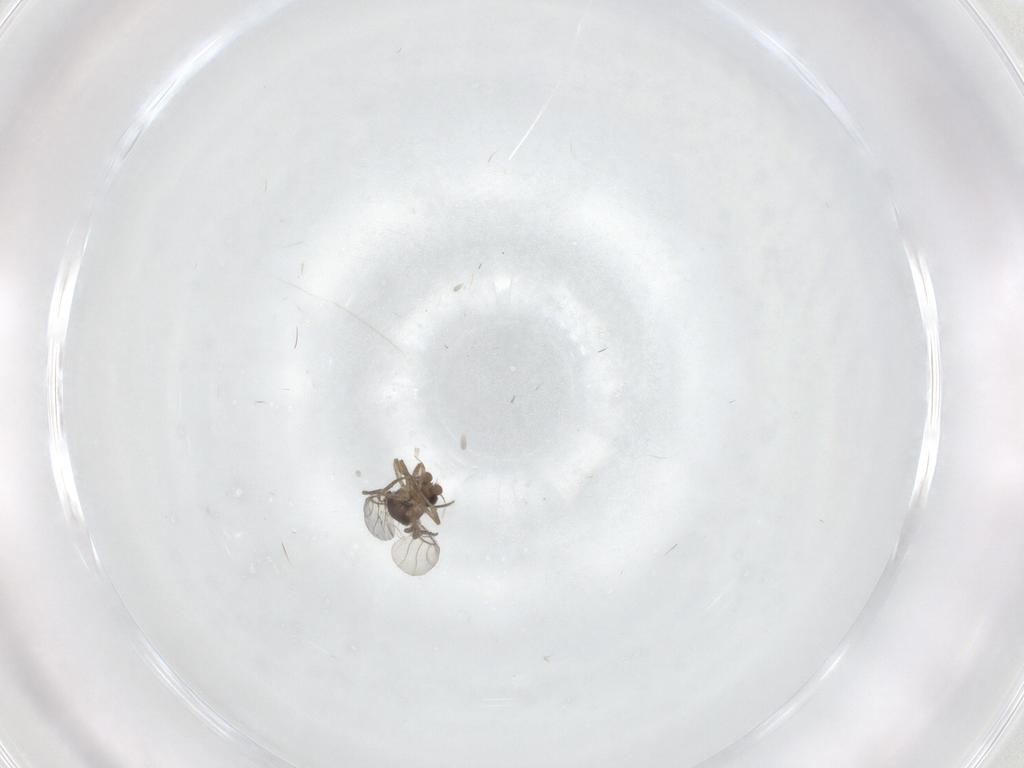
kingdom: Animalia
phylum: Arthropoda
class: Insecta
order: Diptera
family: Phoridae
